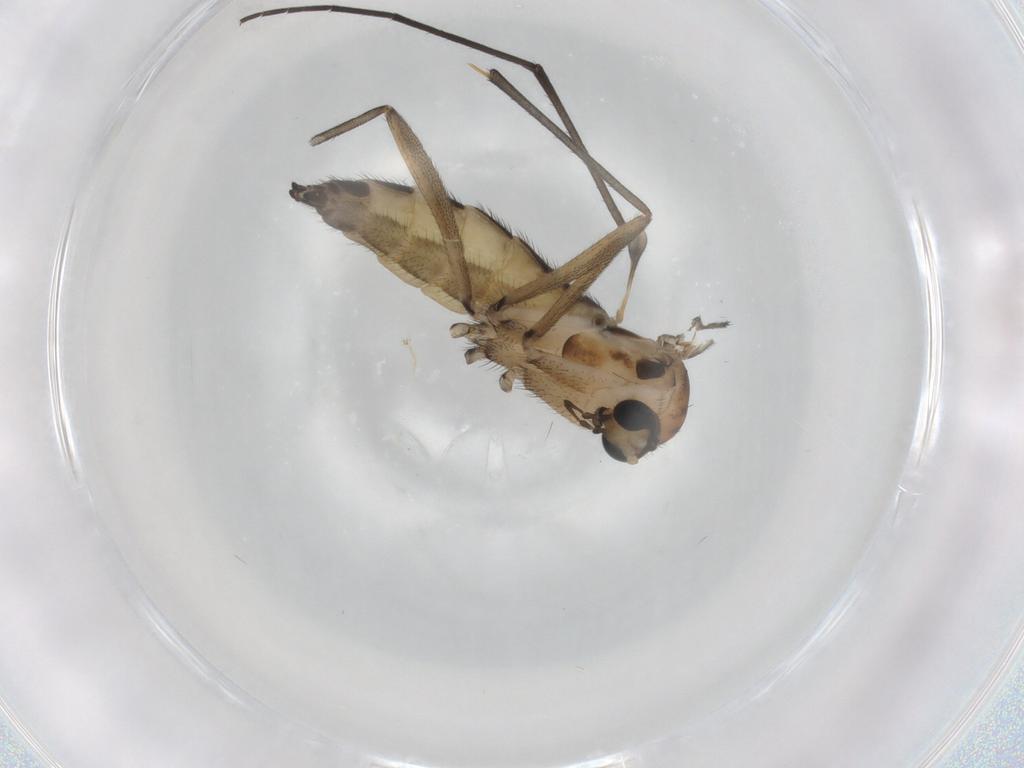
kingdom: Animalia
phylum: Arthropoda
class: Insecta
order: Diptera
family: Sciaridae
